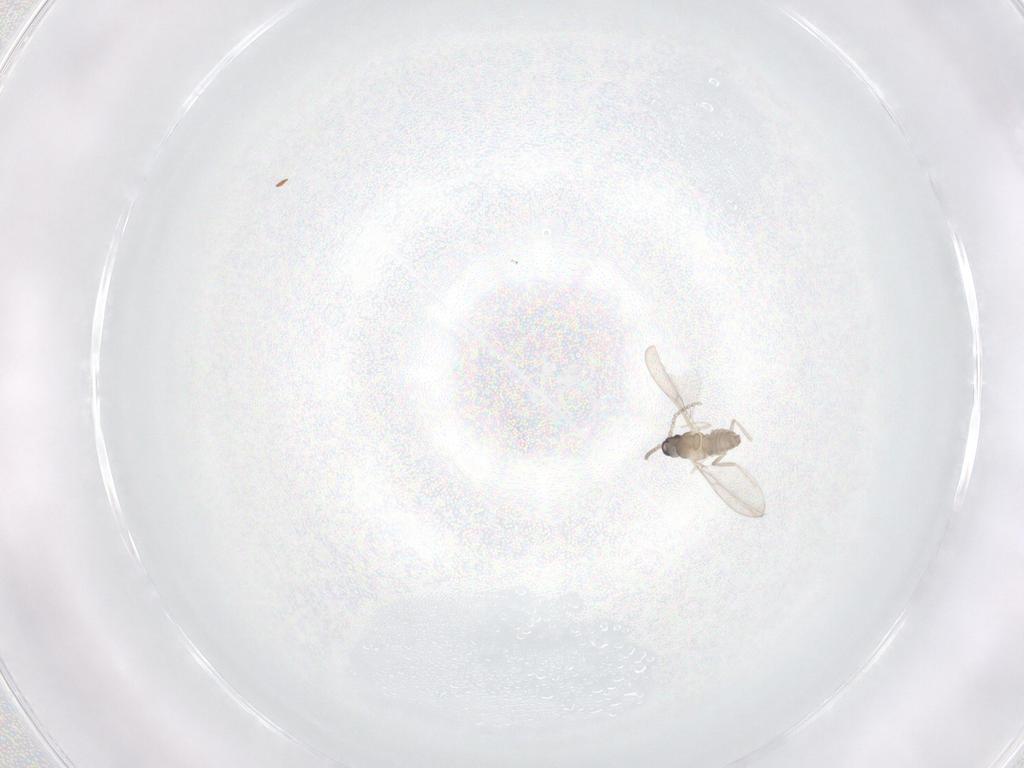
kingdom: Animalia
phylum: Arthropoda
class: Insecta
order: Diptera
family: Cecidomyiidae
